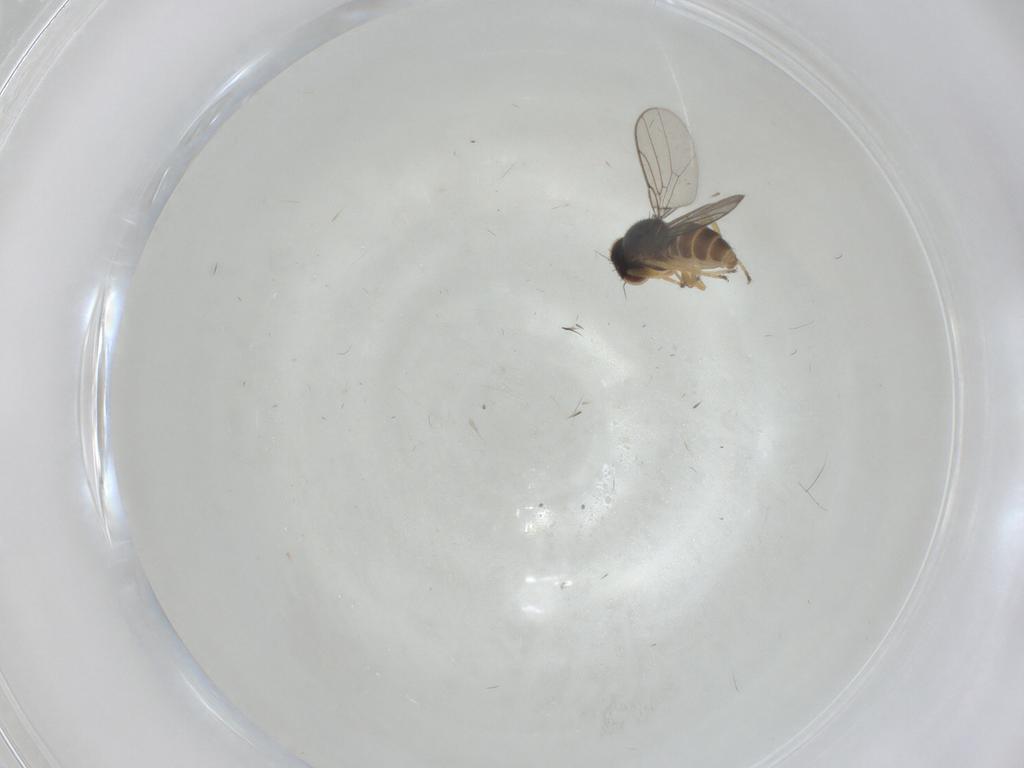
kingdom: Animalia
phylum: Arthropoda
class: Insecta
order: Diptera
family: Chloropidae
